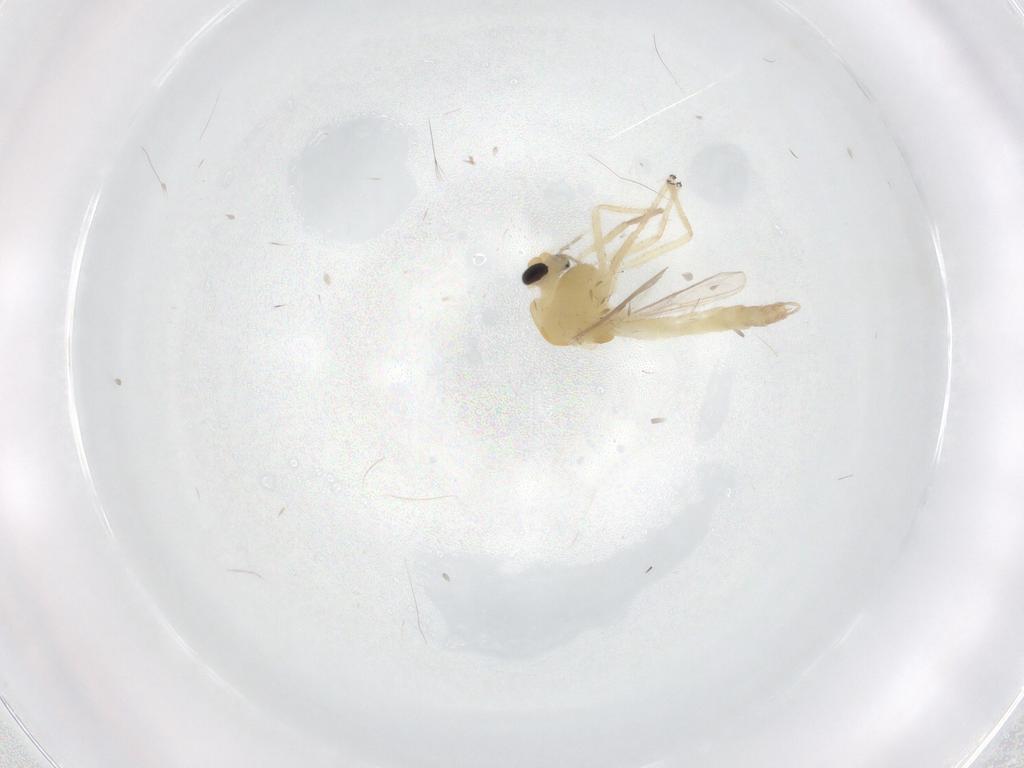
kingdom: Animalia
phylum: Arthropoda
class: Insecta
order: Diptera
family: Chironomidae
